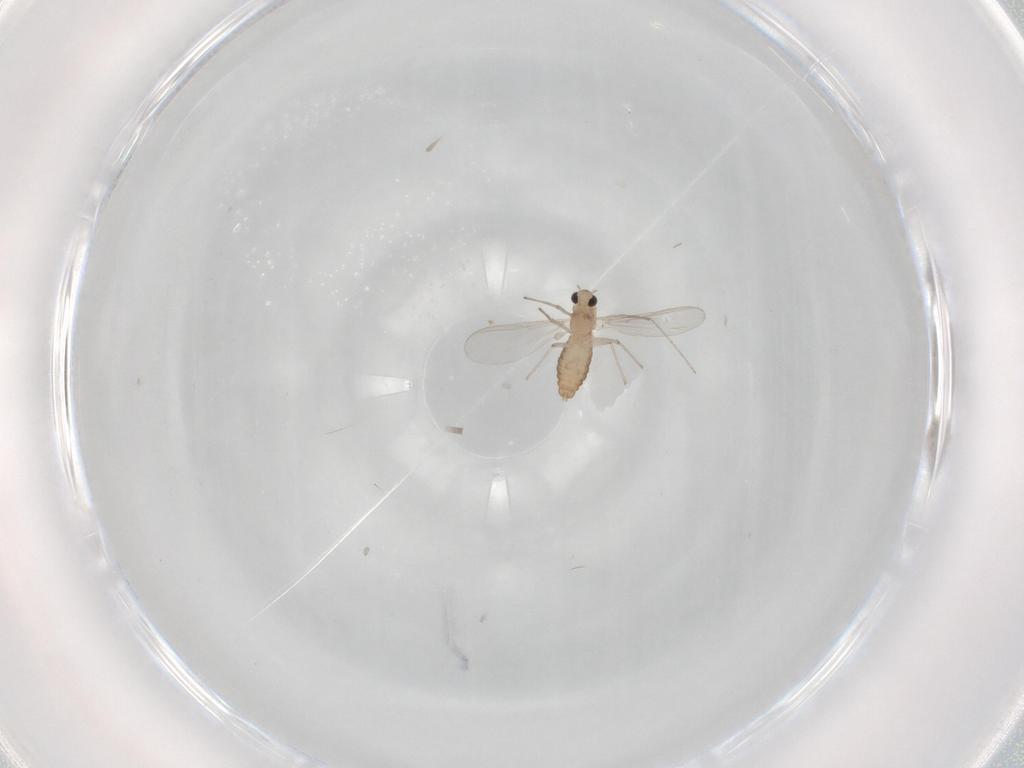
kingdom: Animalia
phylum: Arthropoda
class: Insecta
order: Diptera
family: Chironomidae
